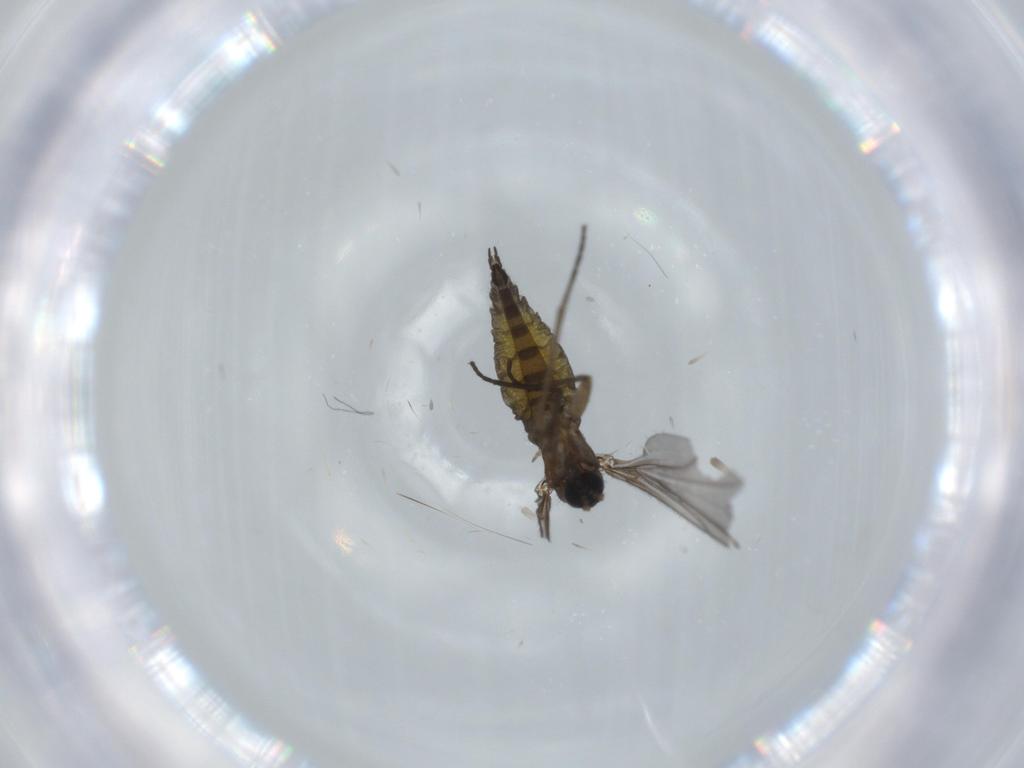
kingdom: Animalia
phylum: Arthropoda
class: Insecta
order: Diptera
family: Sciaridae
